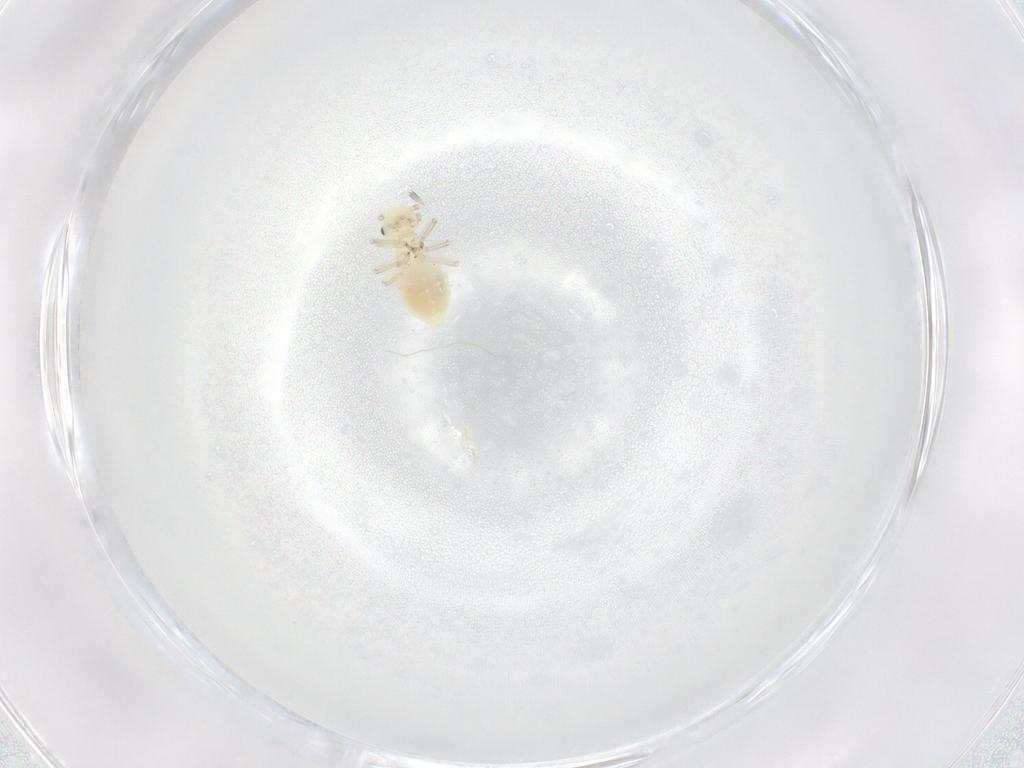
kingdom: Animalia
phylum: Arthropoda
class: Insecta
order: Psocodea
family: Caeciliusidae
